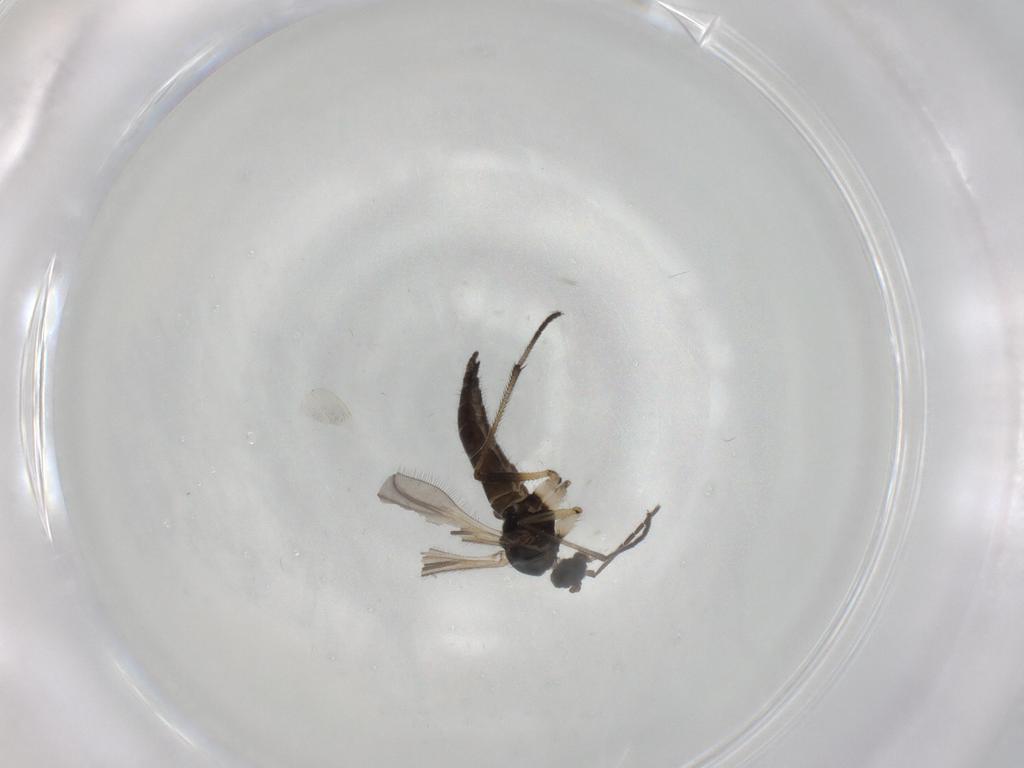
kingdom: Animalia
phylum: Arthropoda
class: Insecta
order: Diptera
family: Sciaridae
